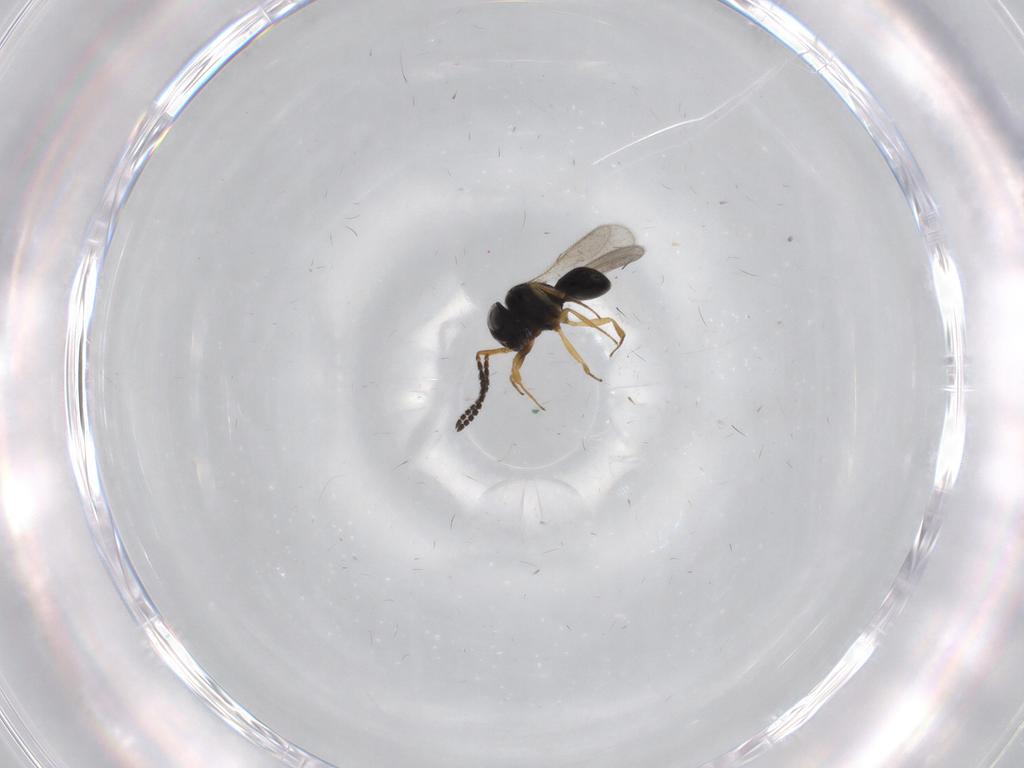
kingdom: Animalia
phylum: Arthropoda
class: Insecta
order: Hymenoptera
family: Scelionidae
